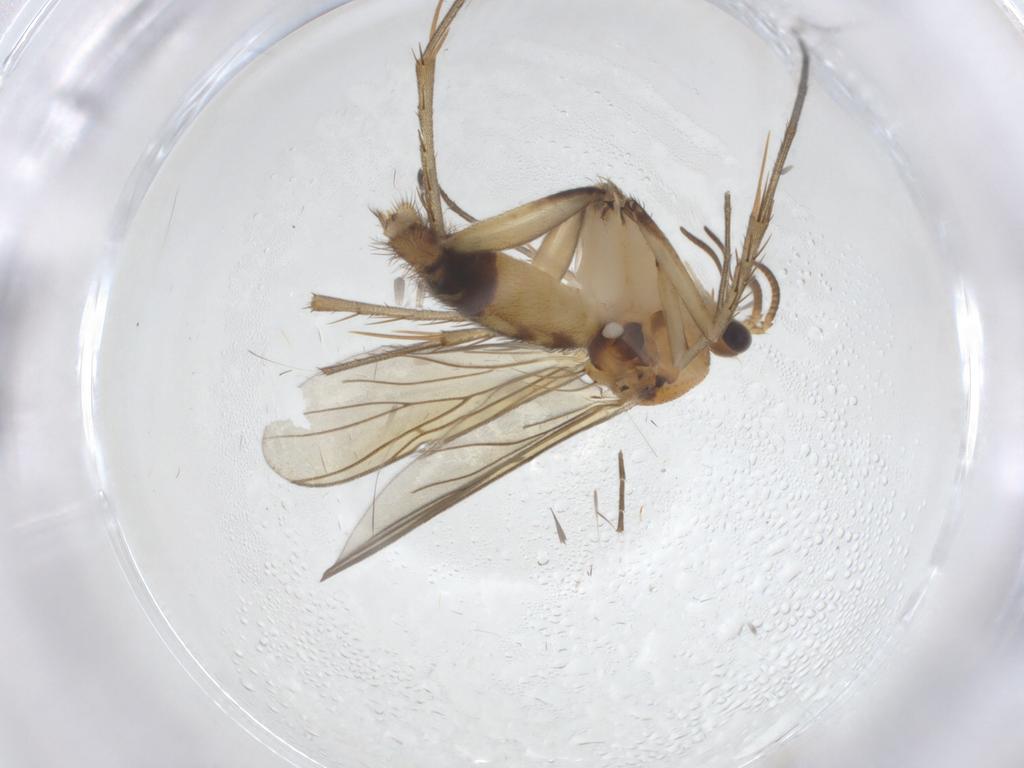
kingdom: Animalia
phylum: Arthropoda
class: Insecta
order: Diptera
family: Mycetophilidae
